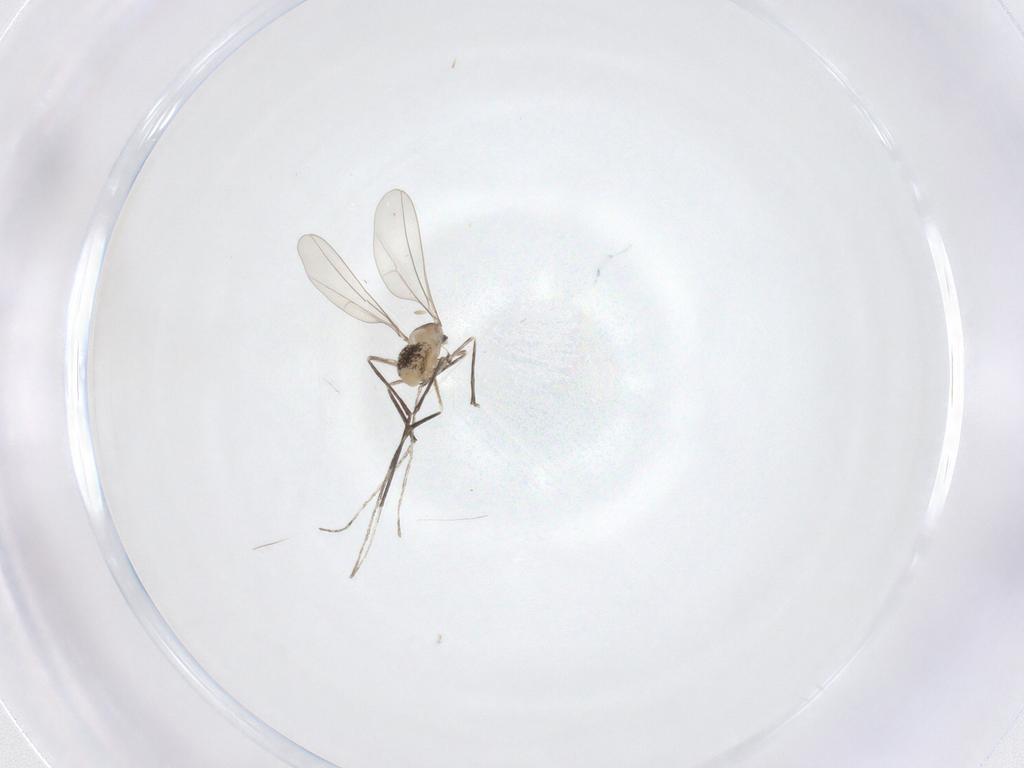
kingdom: Animalia
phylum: Arthropoda
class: Insecta
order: Diptera
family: Cecidomyiidae
